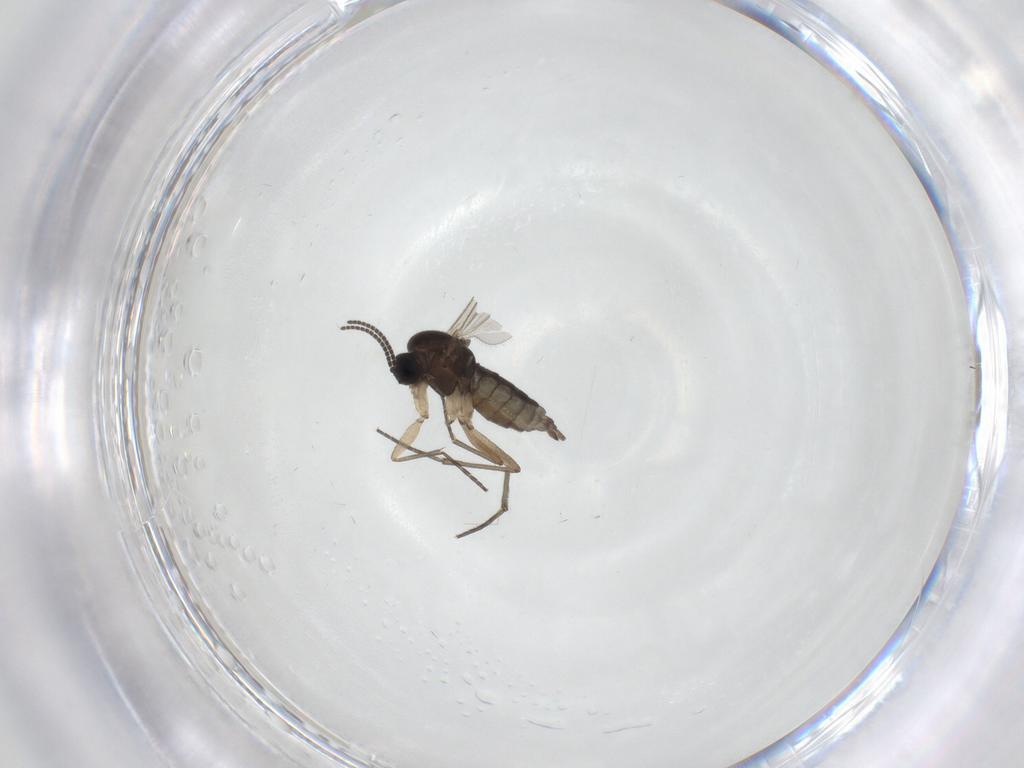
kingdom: Animalia
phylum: Arthropoda
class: Insecta
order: Diptera
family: Sciaridae
